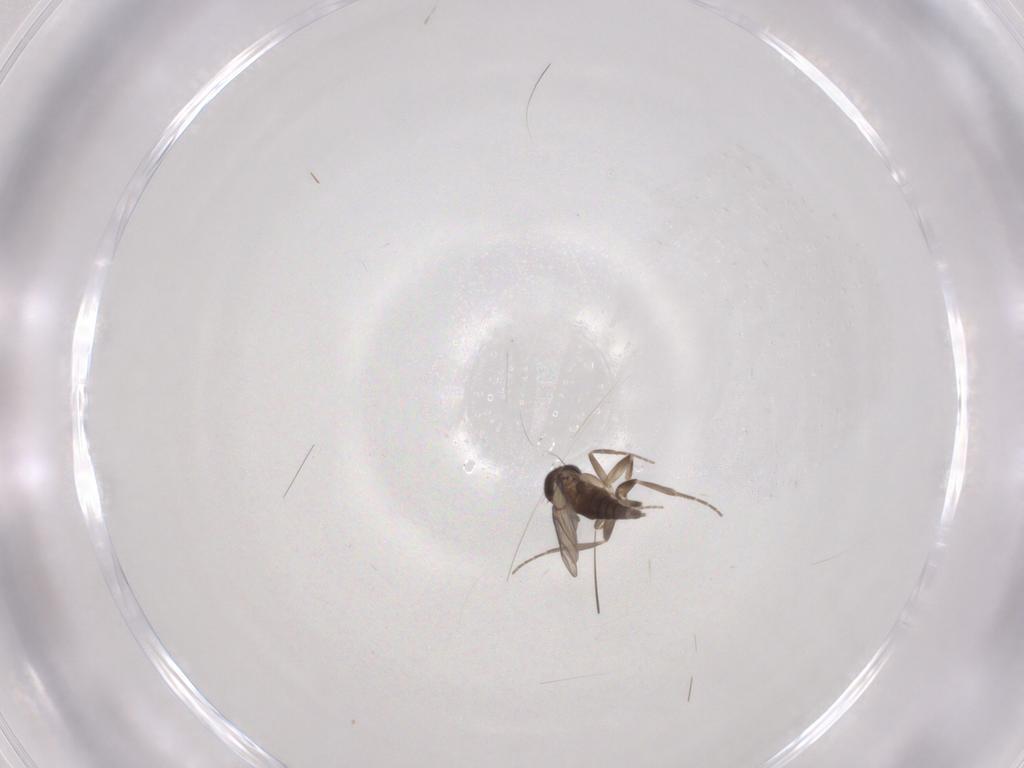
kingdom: Animalia
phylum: Arthropoda
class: Insecta
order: Diptera
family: Phoridae
